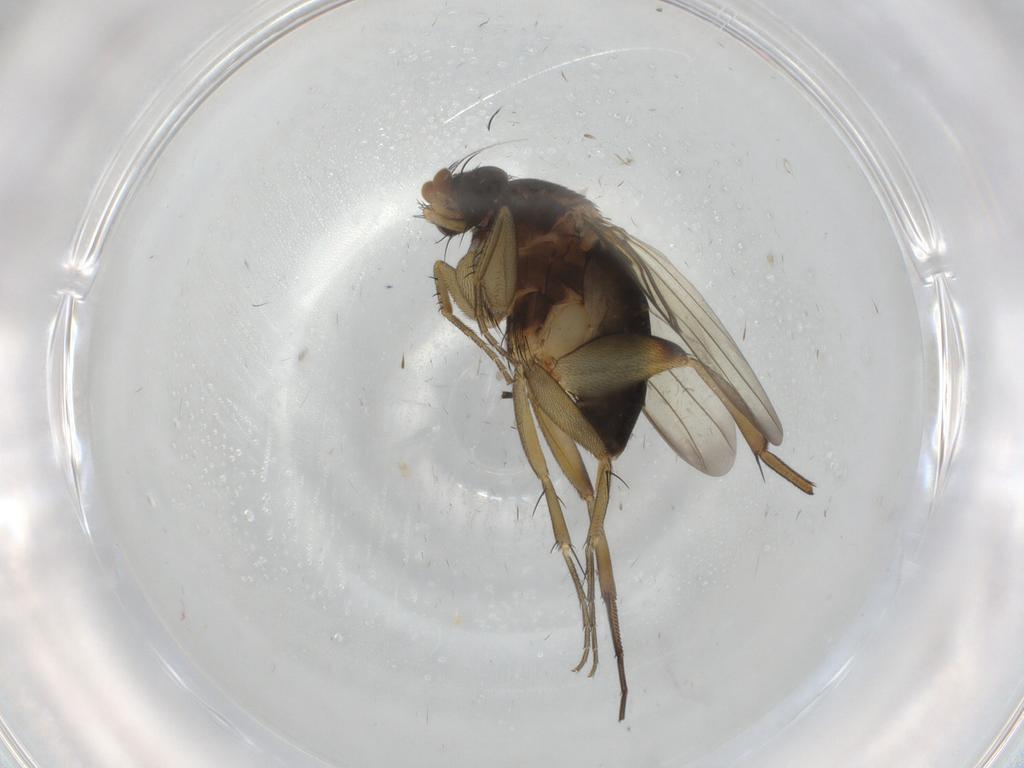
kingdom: Animalia
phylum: Arthropoda
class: Insecta
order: Diptera
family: Phoridae
